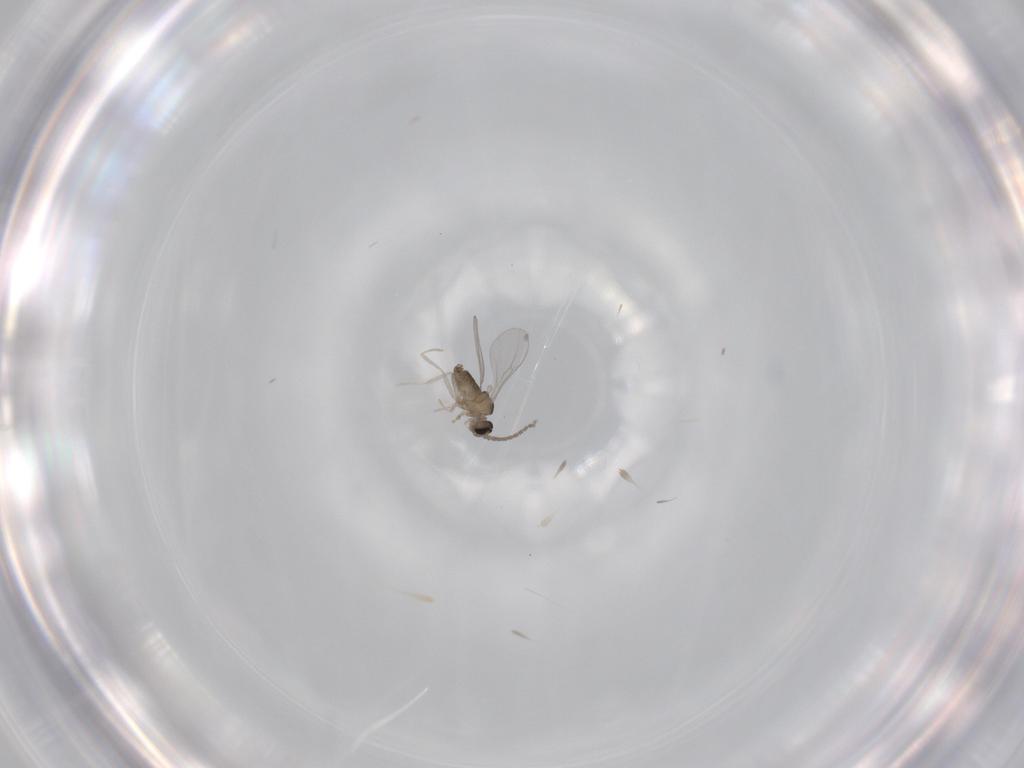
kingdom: Animalia
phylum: Arthropoda
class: Insecta
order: Diptera
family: Cecidomyiidae
